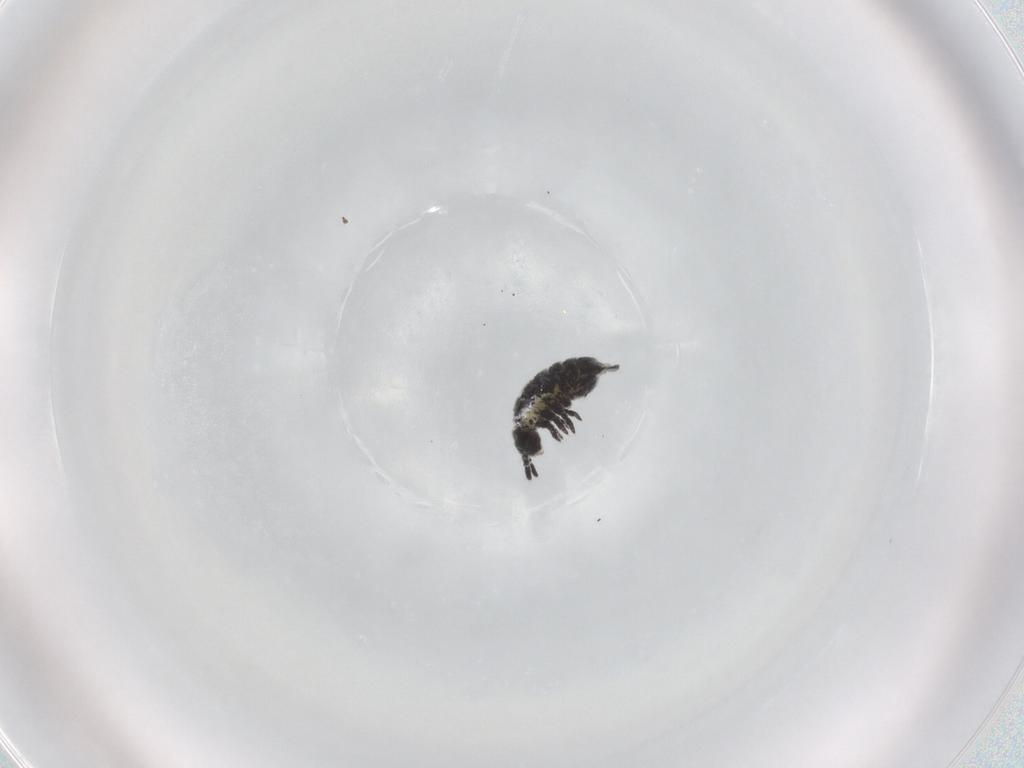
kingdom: Animalia
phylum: Arthropoda
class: Collembola
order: Poduromorpha
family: Hypogastruridae
